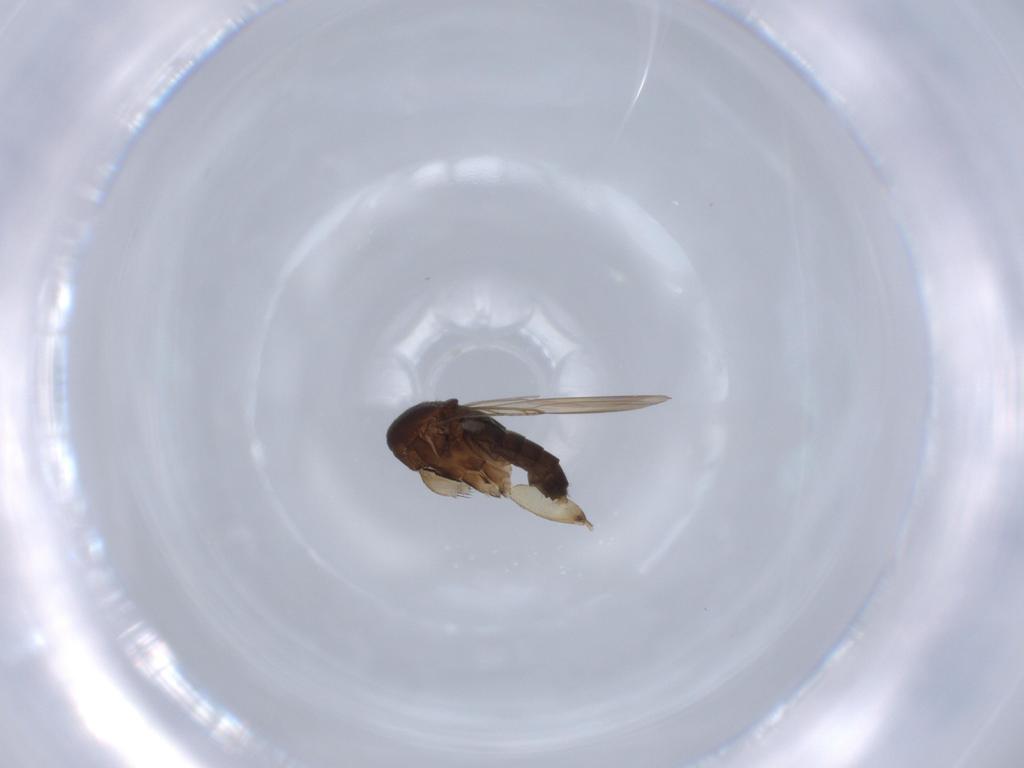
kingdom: Animalia
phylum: Arthropoda
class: Insecta
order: Diptera
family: Phoridae
